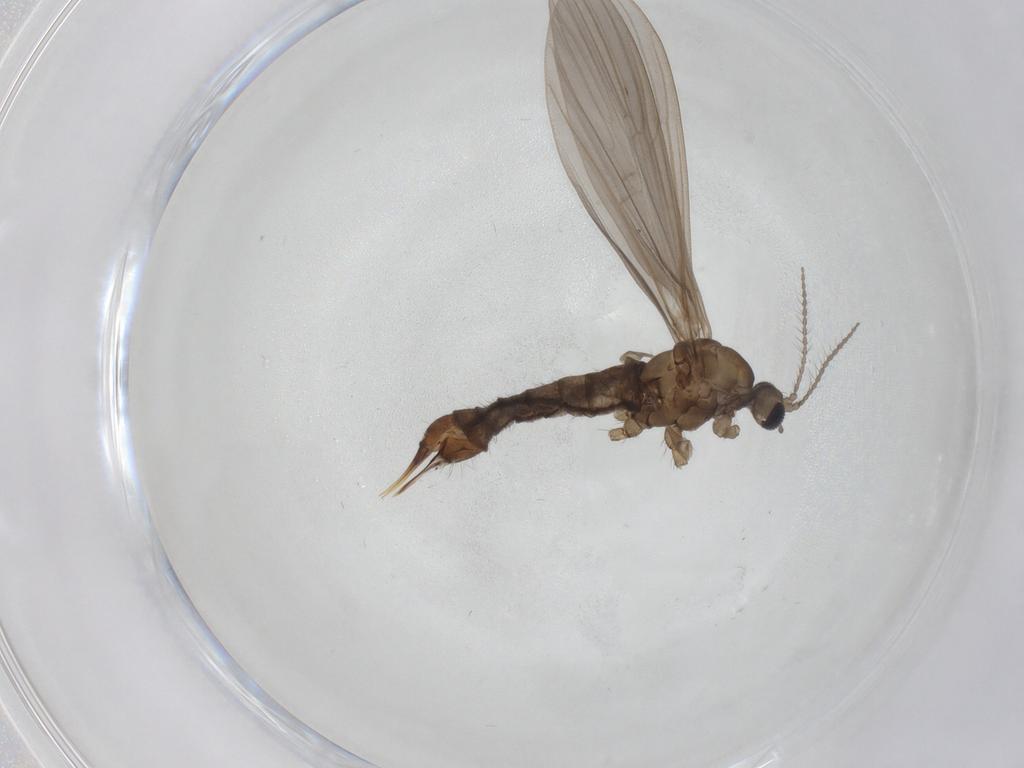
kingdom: Animalia
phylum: Arthropoda
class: Insecta
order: Diptera
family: Limoniidae
